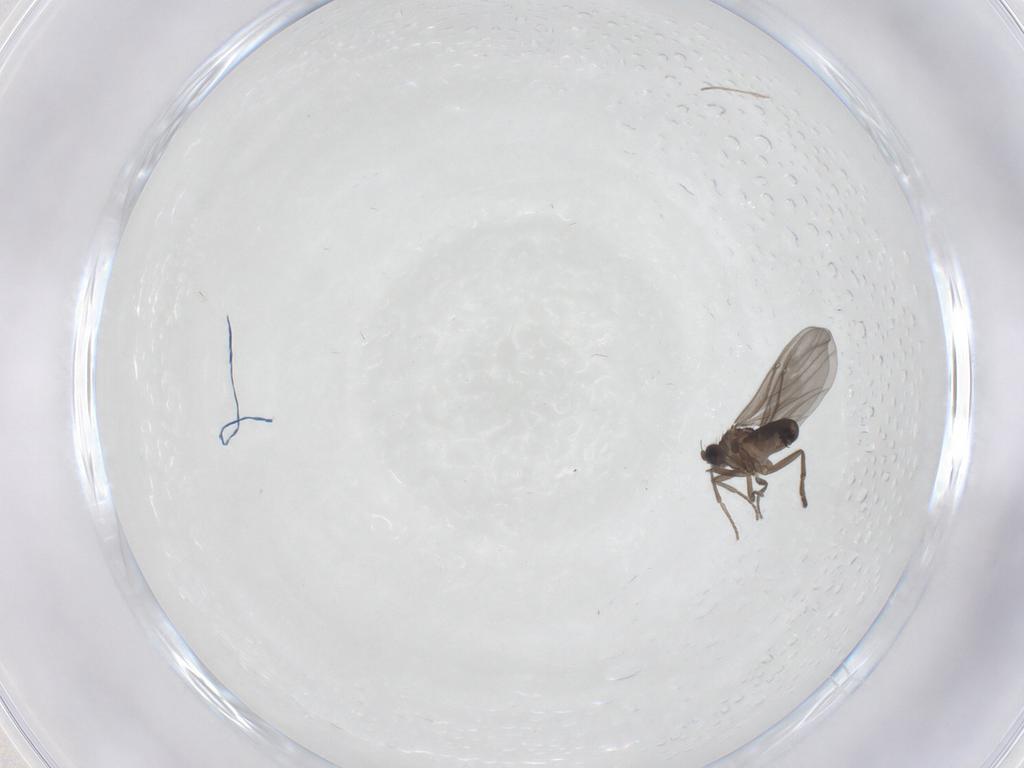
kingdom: Animalia
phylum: Arthropoda
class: Insecta
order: Diptera
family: Chironomidae
